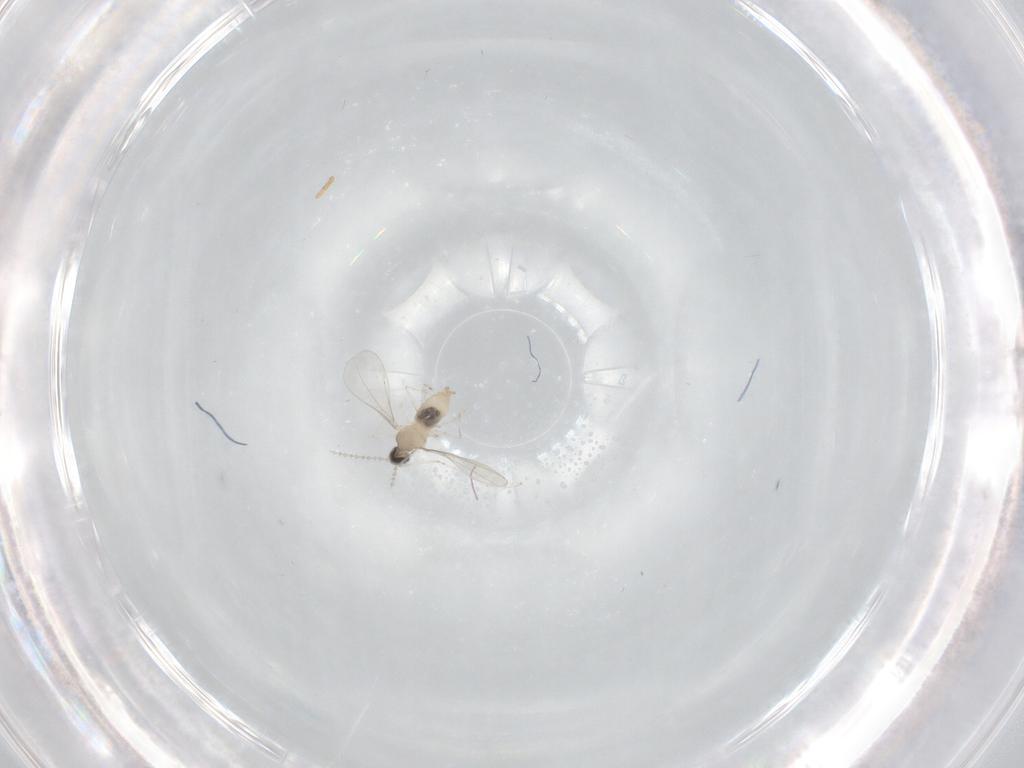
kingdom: Animalia
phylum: Arthropoda
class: Insecta
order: Diptera
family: Cecidomyiidae
